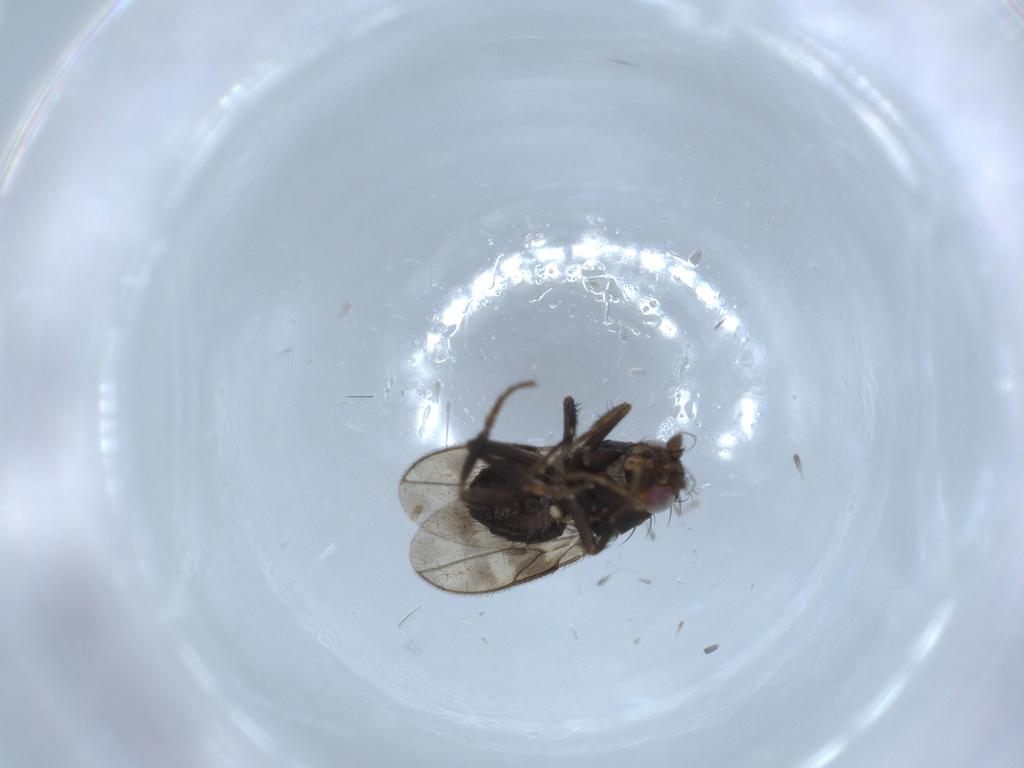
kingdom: Animalia
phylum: Arthropoda
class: Insecta
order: Diptera
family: Sphaeroceridae
